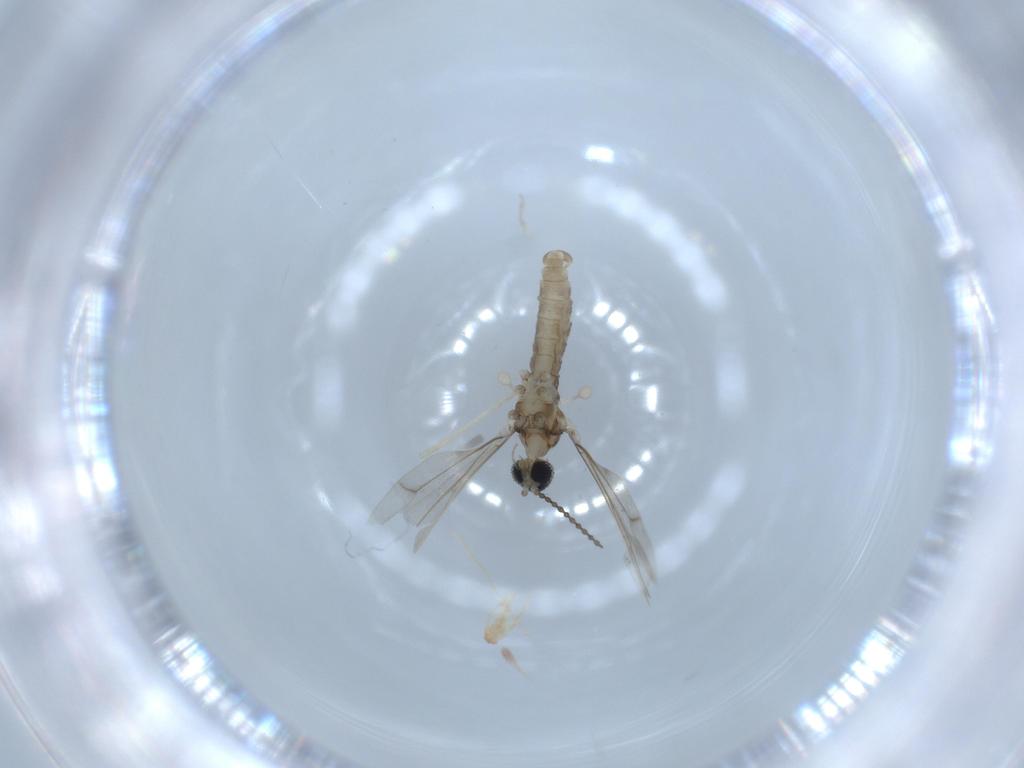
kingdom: Animalia
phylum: Arthropoda
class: Insecta
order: Diptera
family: Cecidomyiidae
